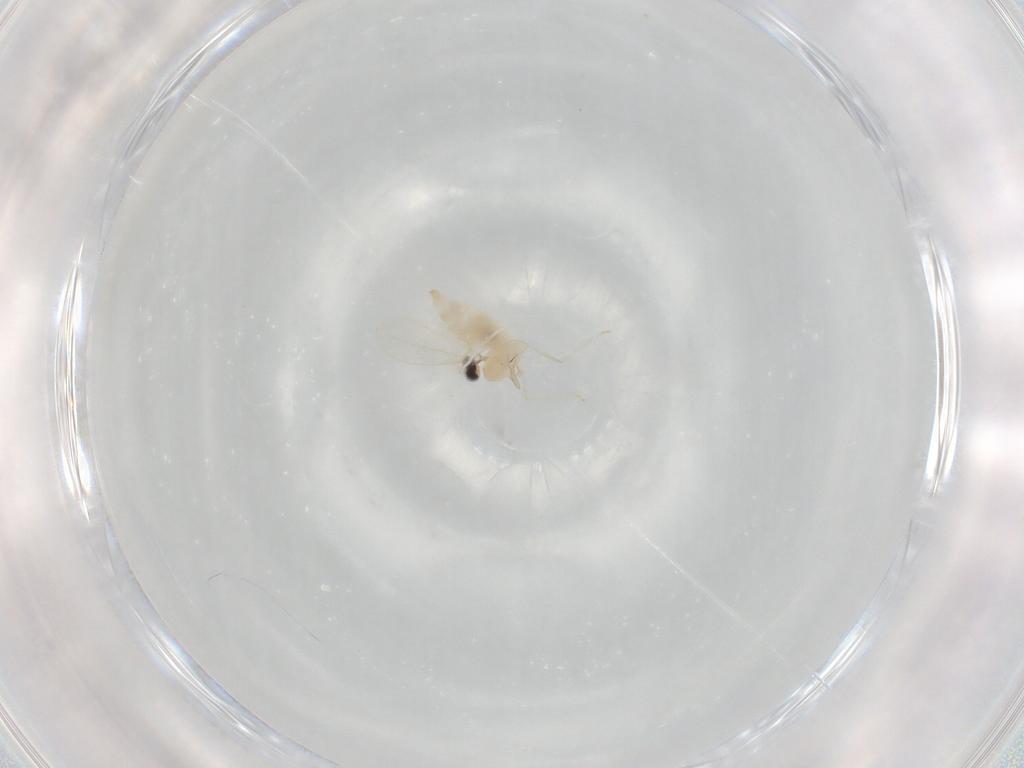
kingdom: Animalia
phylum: Arthropoda
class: Insecta
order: Diptera
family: Cecidomyiidae
